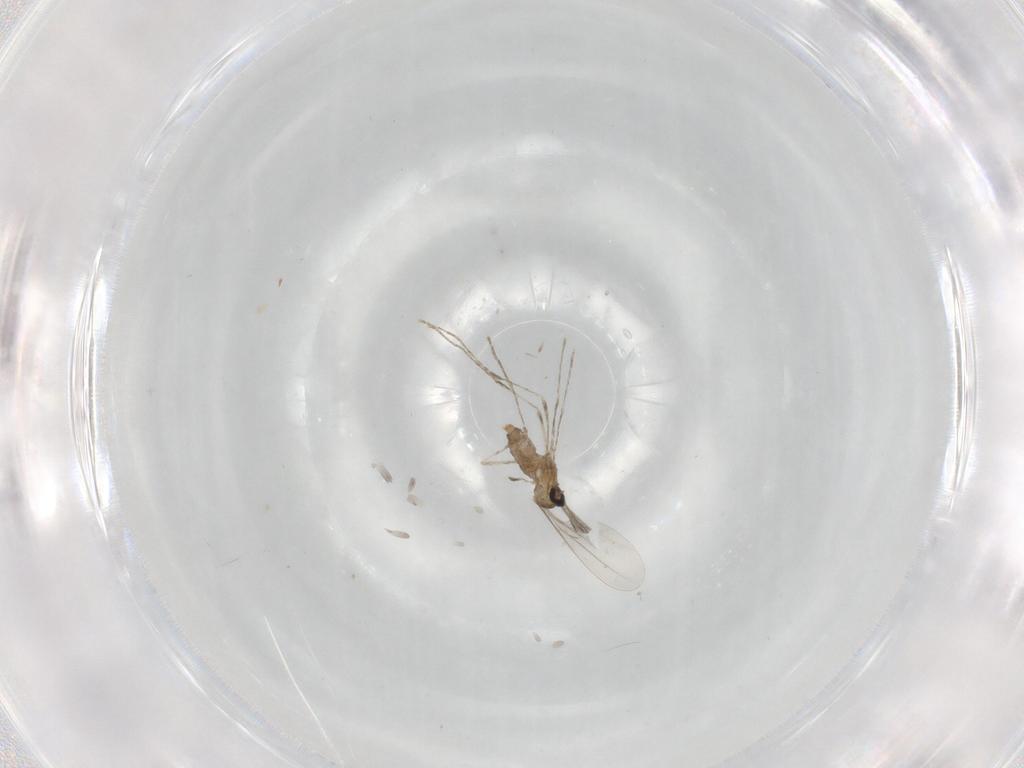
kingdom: Animalia
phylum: Arthropoda
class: Insecta
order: Diptera
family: Cecidomyiidae
